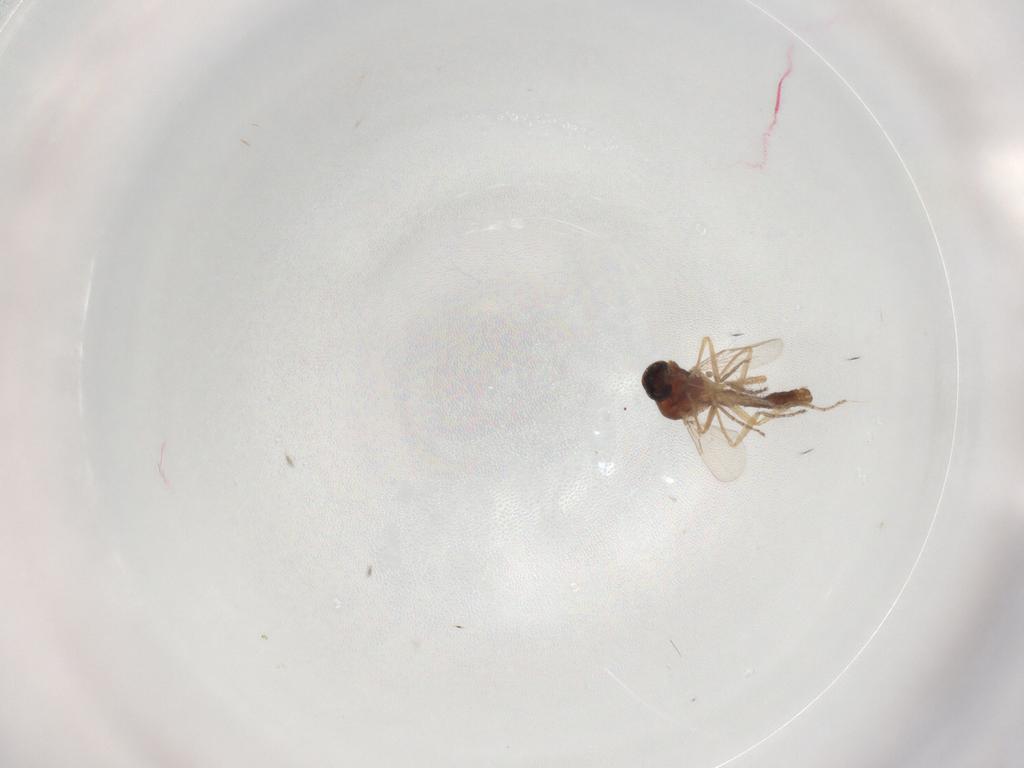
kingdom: Animalia
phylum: Arthropoda
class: Insecta
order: Diptera
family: Ceratopogonidae
